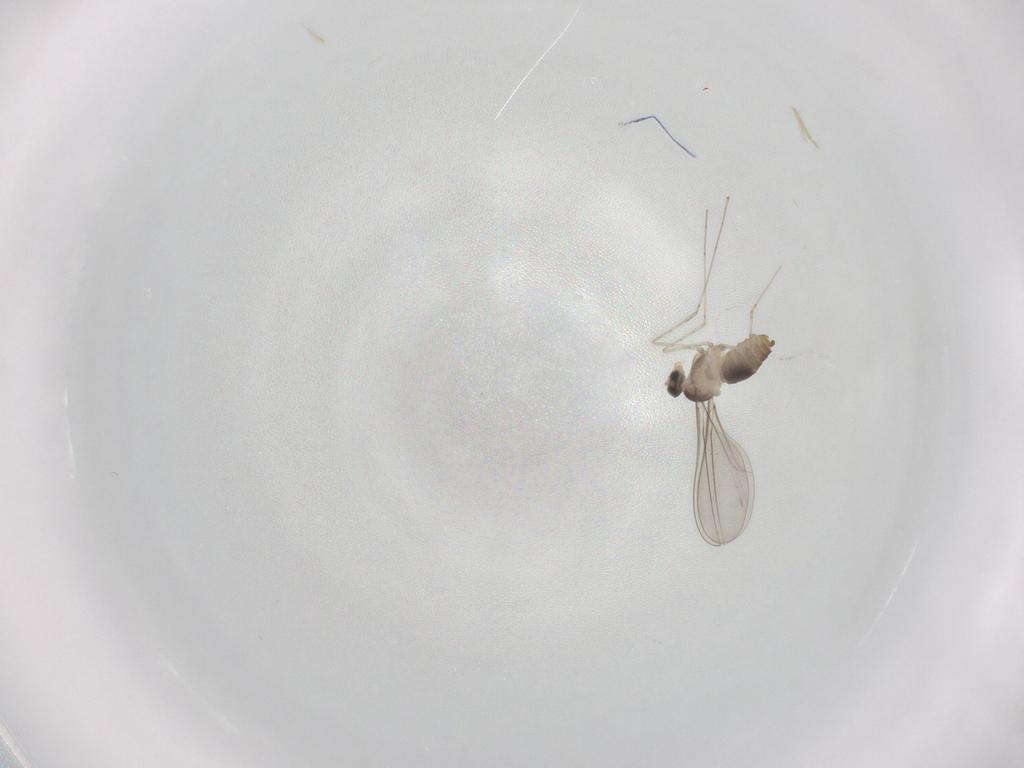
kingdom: Animalia
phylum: Arthropoda
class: Insecta
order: Diptera
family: Cecidomyiidae
